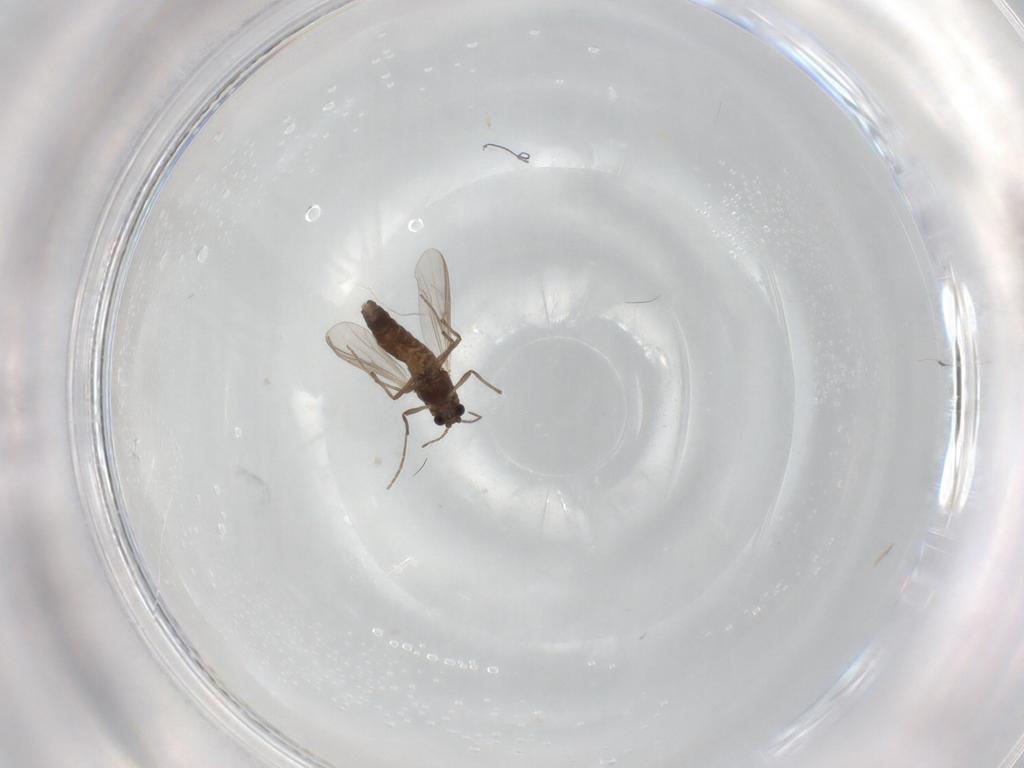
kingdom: Animalia
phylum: Arthropoda
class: Insecta
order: Diptera
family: Chironomidae
